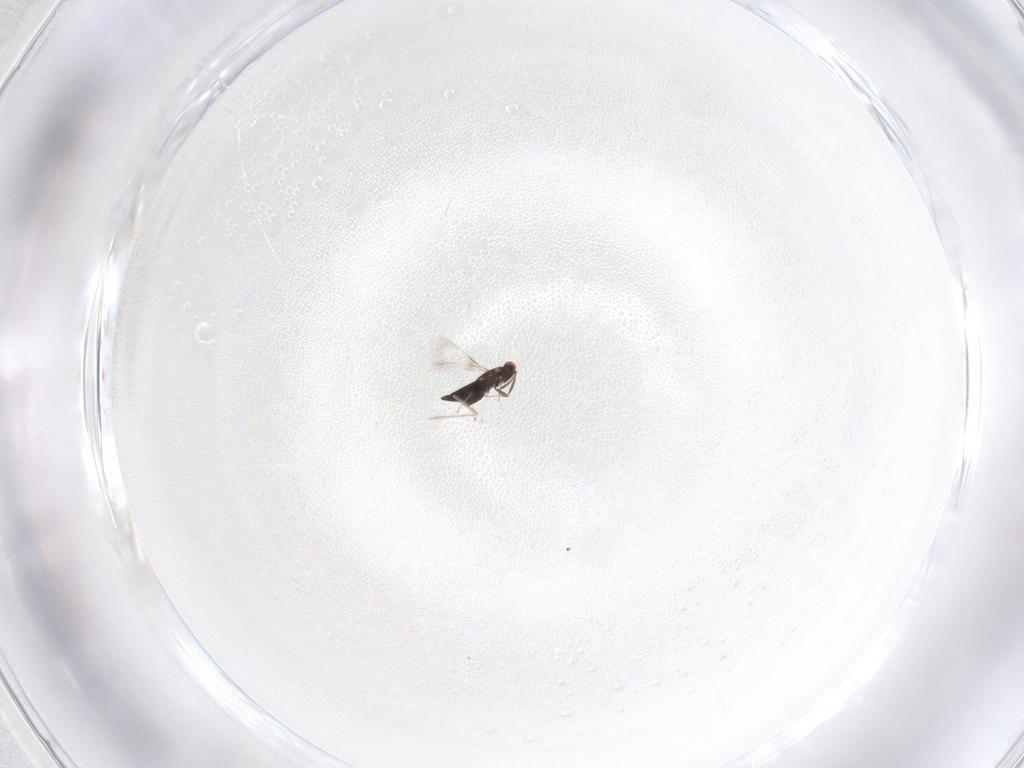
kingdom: Animalia
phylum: Arthropoda
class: Insecta
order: Hymenoptera
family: Signiphoridae
